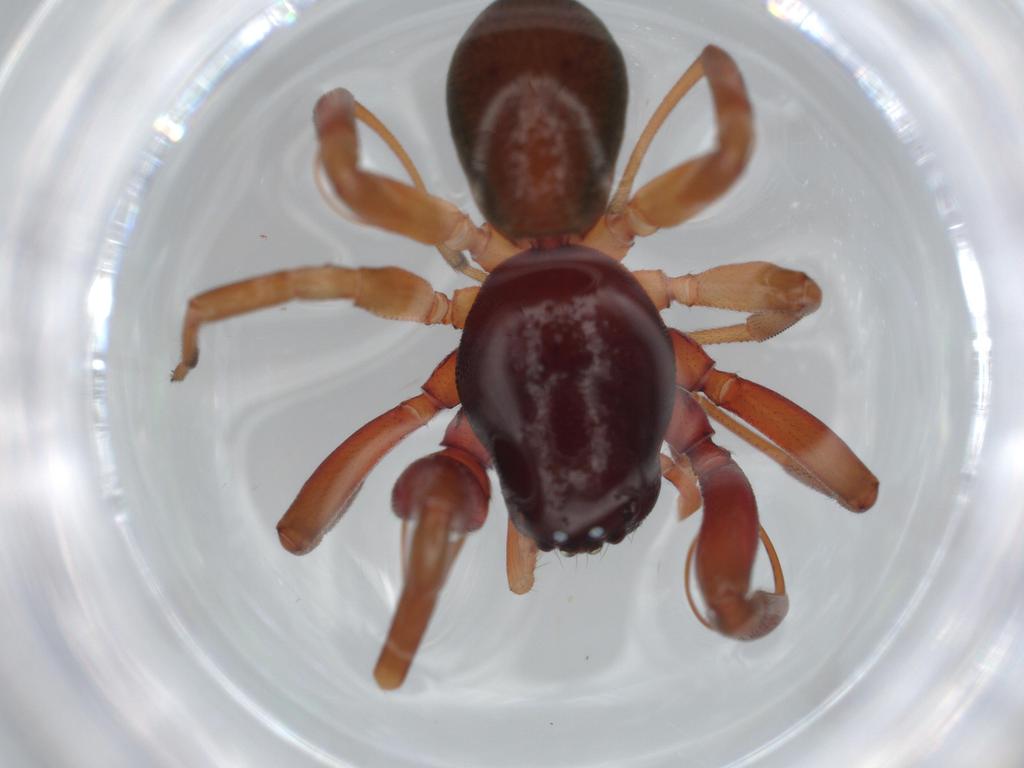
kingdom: Animalia
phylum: Arthropoda
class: Arachnida
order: Araneae
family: Trachelidae
